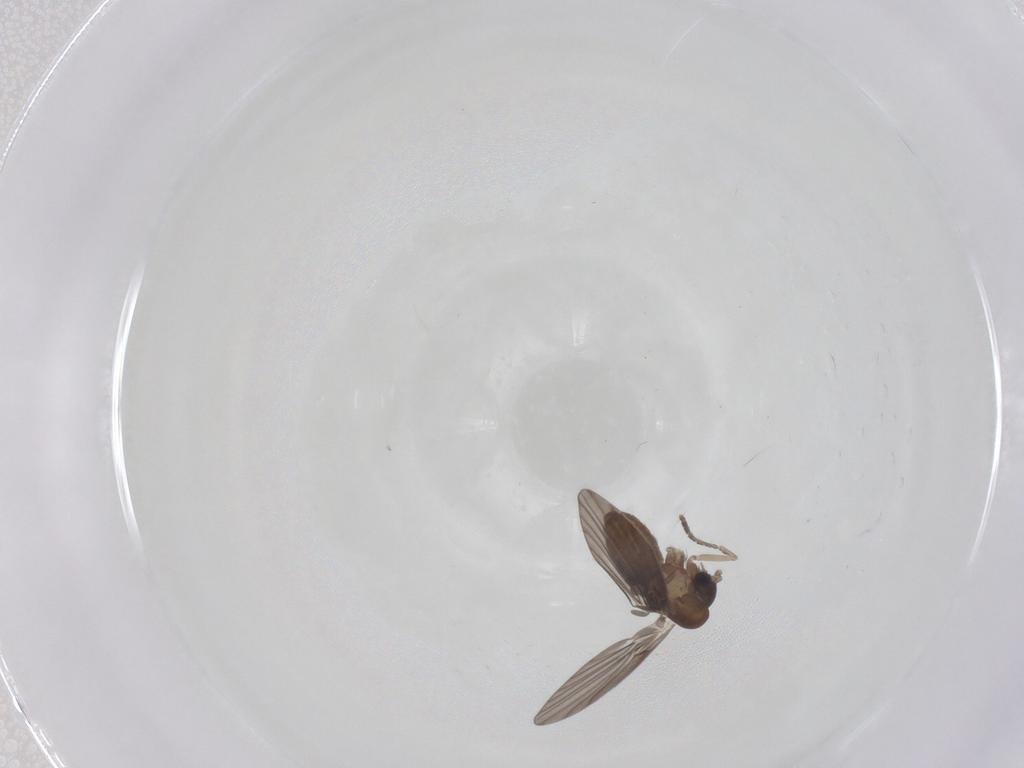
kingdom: Animalia
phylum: Arthropoda
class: Insecta
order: Diptera
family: Psychodidae
